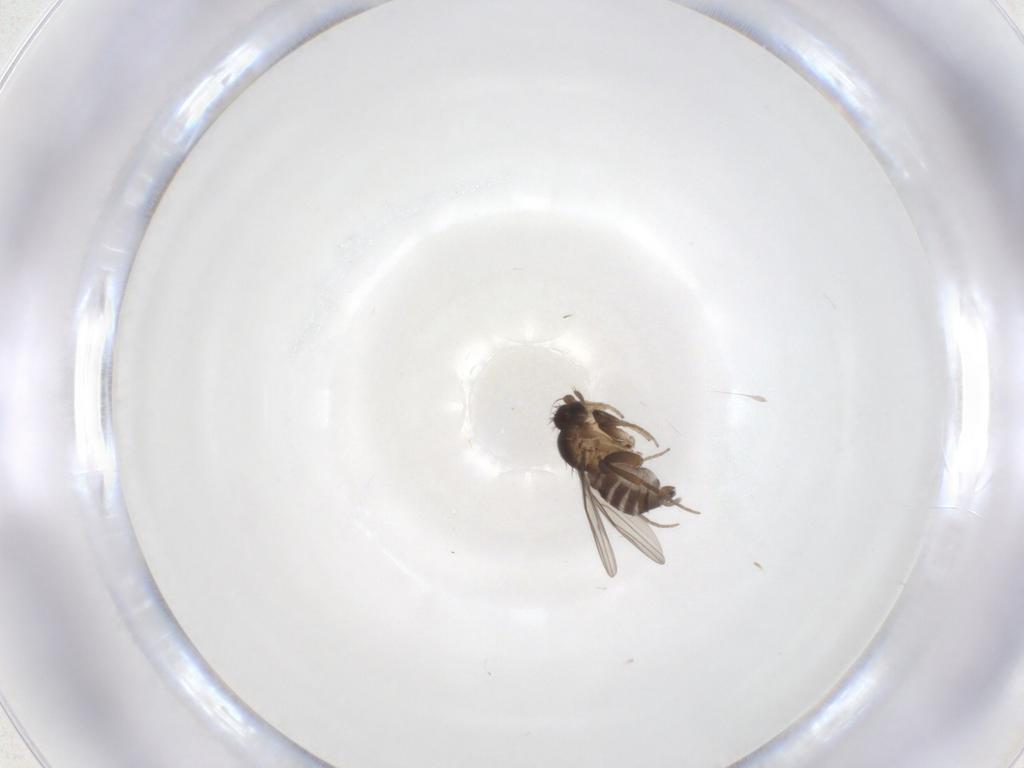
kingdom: Animalia
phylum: Arthropoda
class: Insecta
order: Diptera
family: Phoridae
